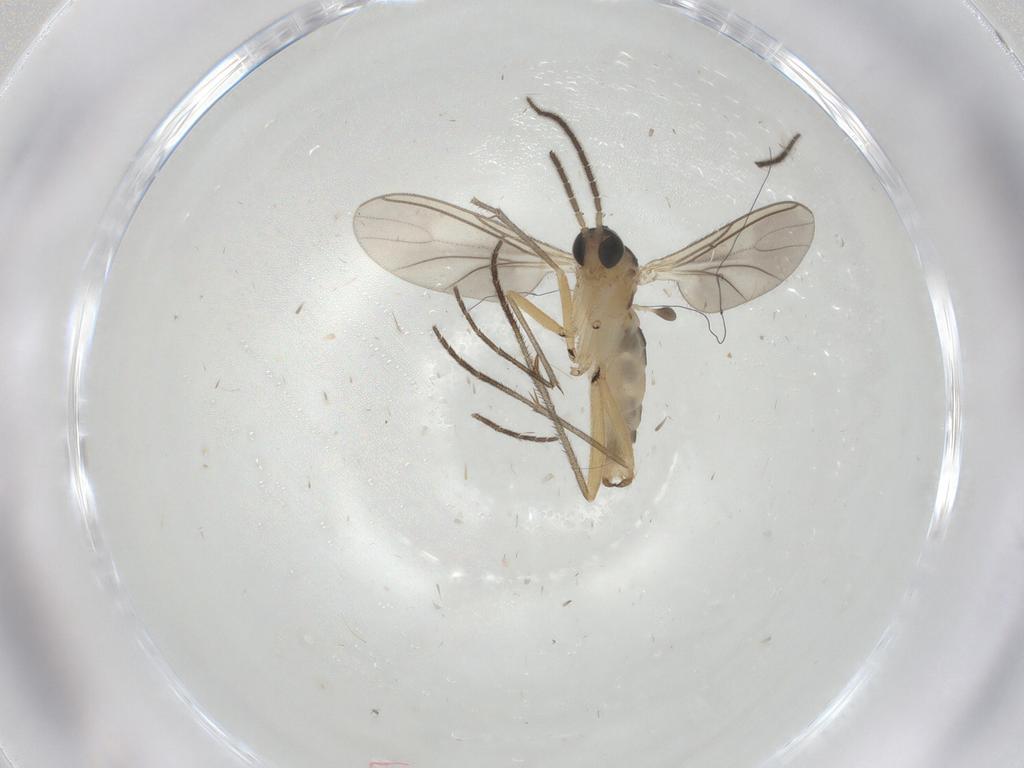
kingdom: Animalia
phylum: Arthropoda
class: Insecta
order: Diptera
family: Sciaridae
